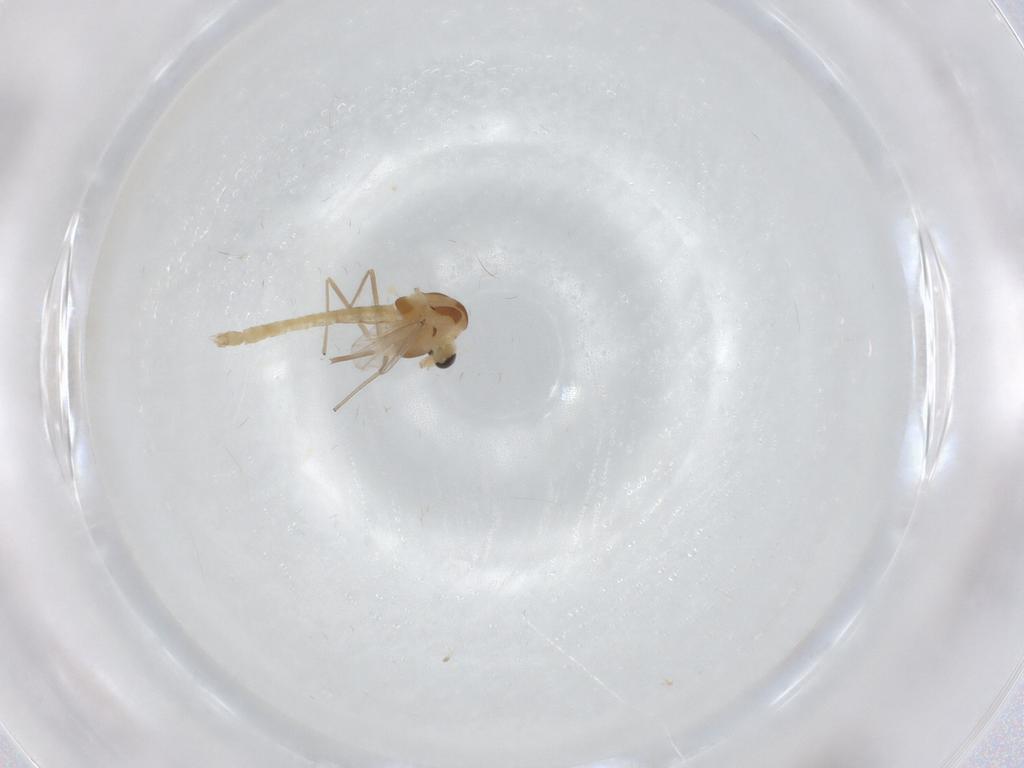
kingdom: Animalia
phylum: Arthropoda
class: Insecta
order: Diptera
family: Chironomidae
